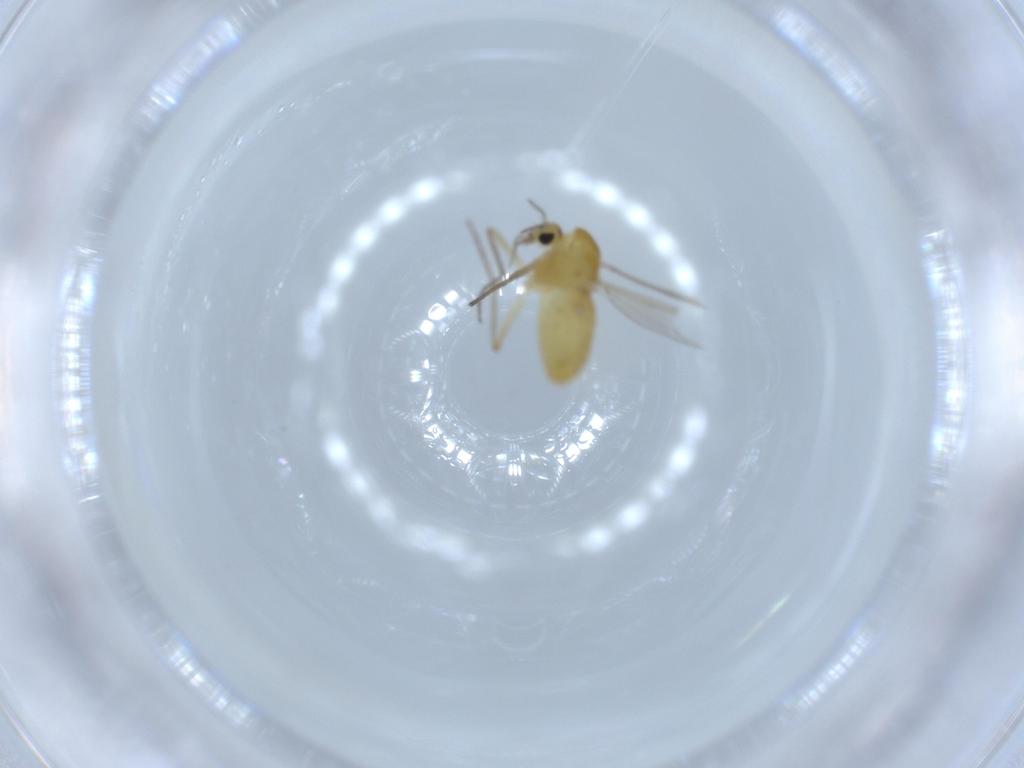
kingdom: Animalia
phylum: Arthropoda
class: Insecta
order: Diptera
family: Chironomidae
